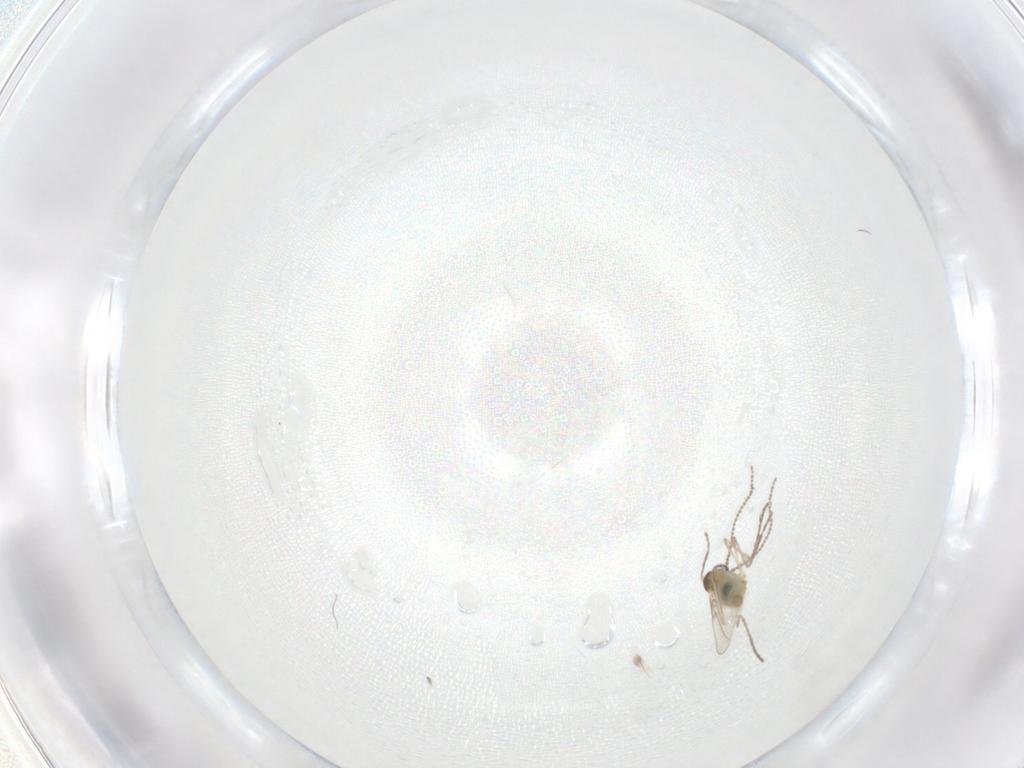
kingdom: Animalia
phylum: Arthropoda
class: Insecta
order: Diptera
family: Cecidomyiidae
